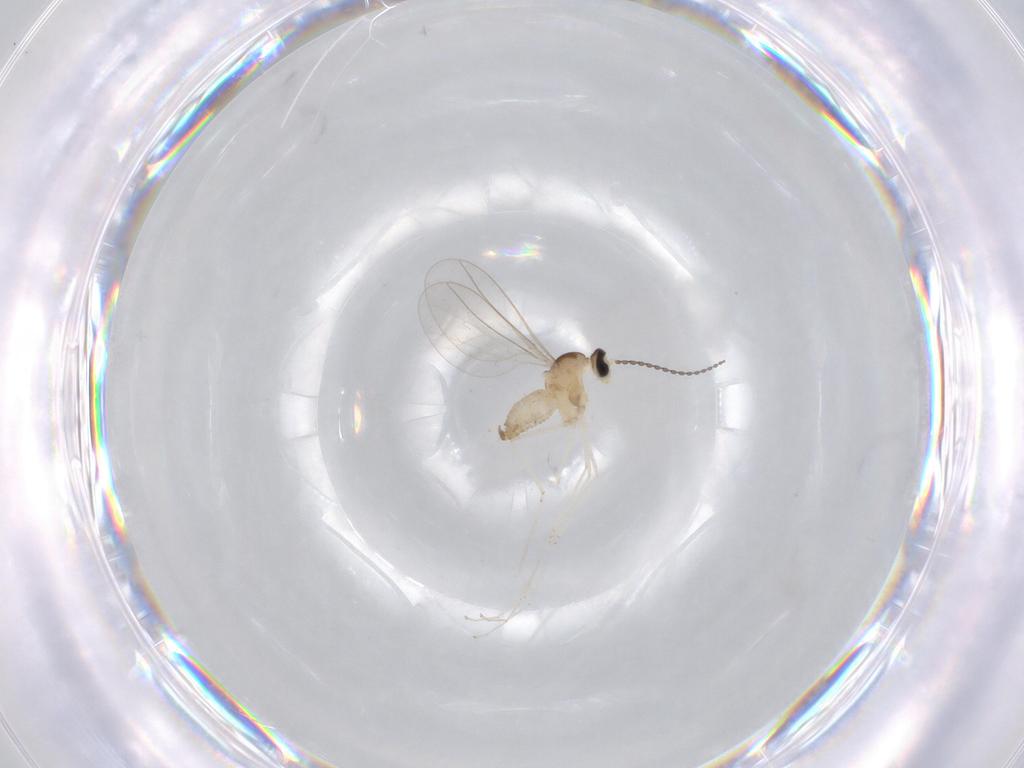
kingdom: Animalia
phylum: Arthropoda
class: Insecta
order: Diptera
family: Cecidomyiidae
